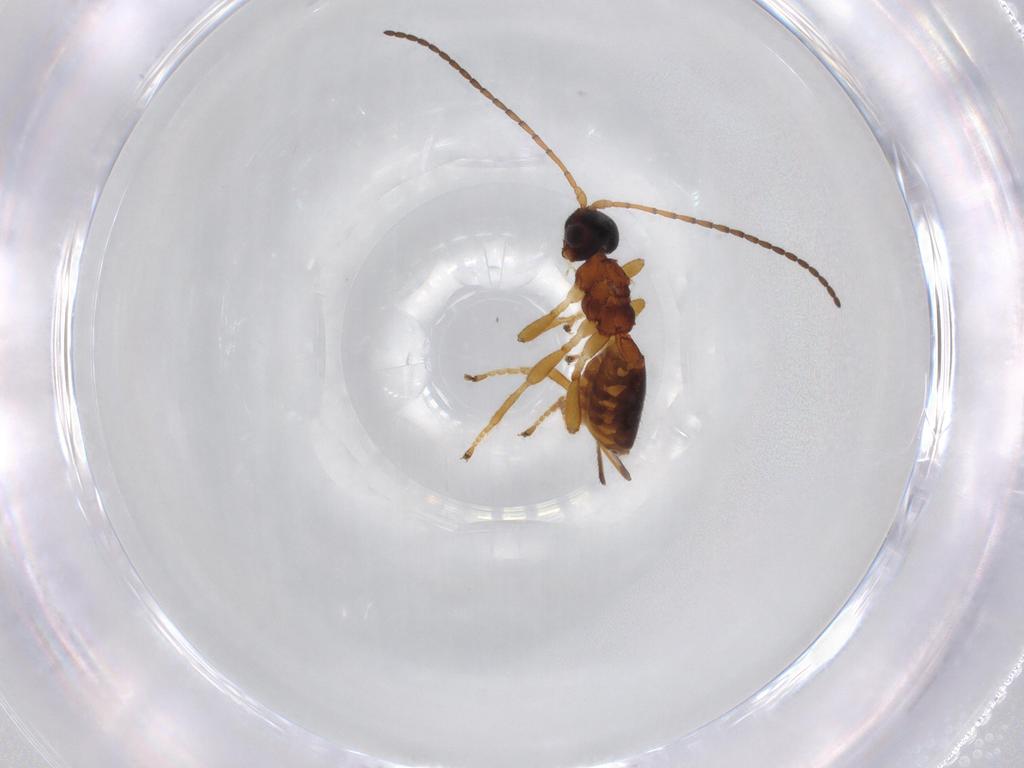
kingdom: Animalia
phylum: Arthropoda
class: Insecta
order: Hymenoptera
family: Braconidae
